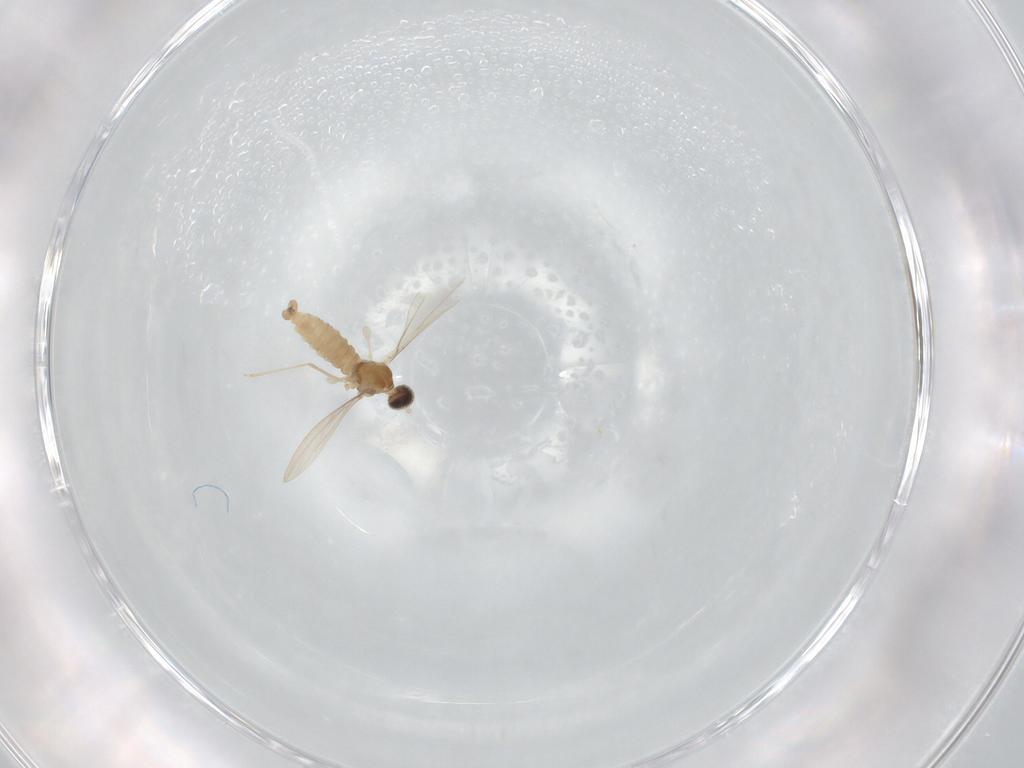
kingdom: Animalia
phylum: Arthropoda
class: Insecta
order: Diptera
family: Cecidomyiidae
